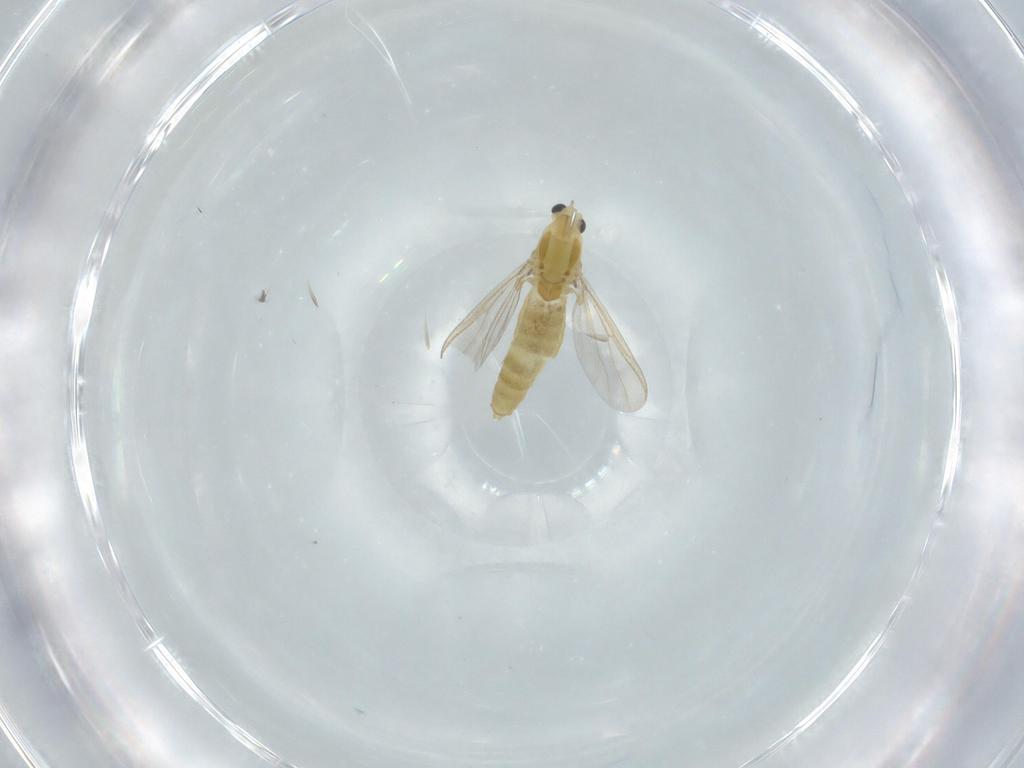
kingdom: Animalia
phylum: Arthropoda
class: Insecta
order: Diptera
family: Chironomidae
